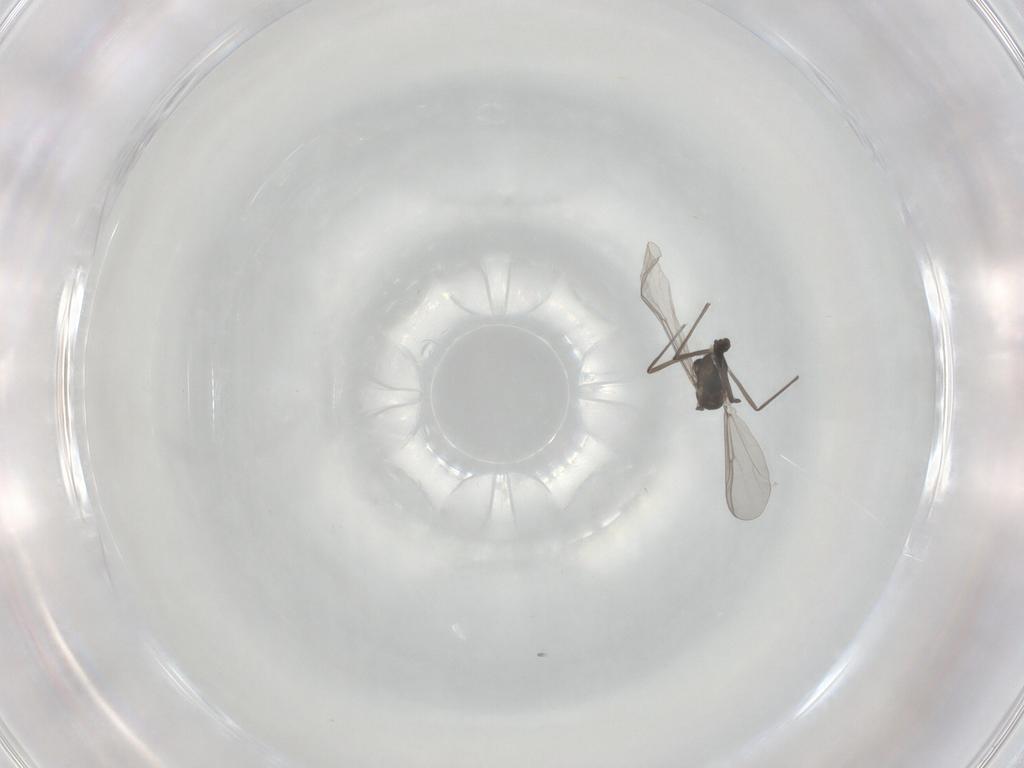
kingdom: Animalia
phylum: Arthropoda
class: Insecta
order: Diptera
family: Chironomidae
